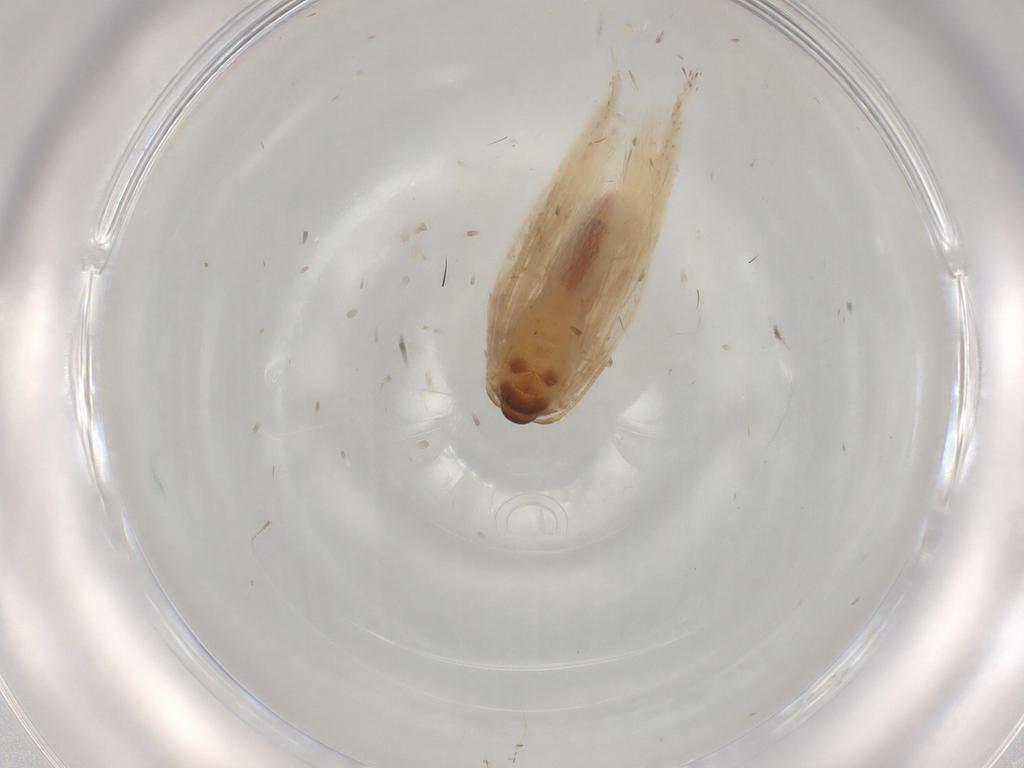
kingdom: Animalia
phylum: Arthropoda
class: Insecta
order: Lepidoptera
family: Gelechiidae
